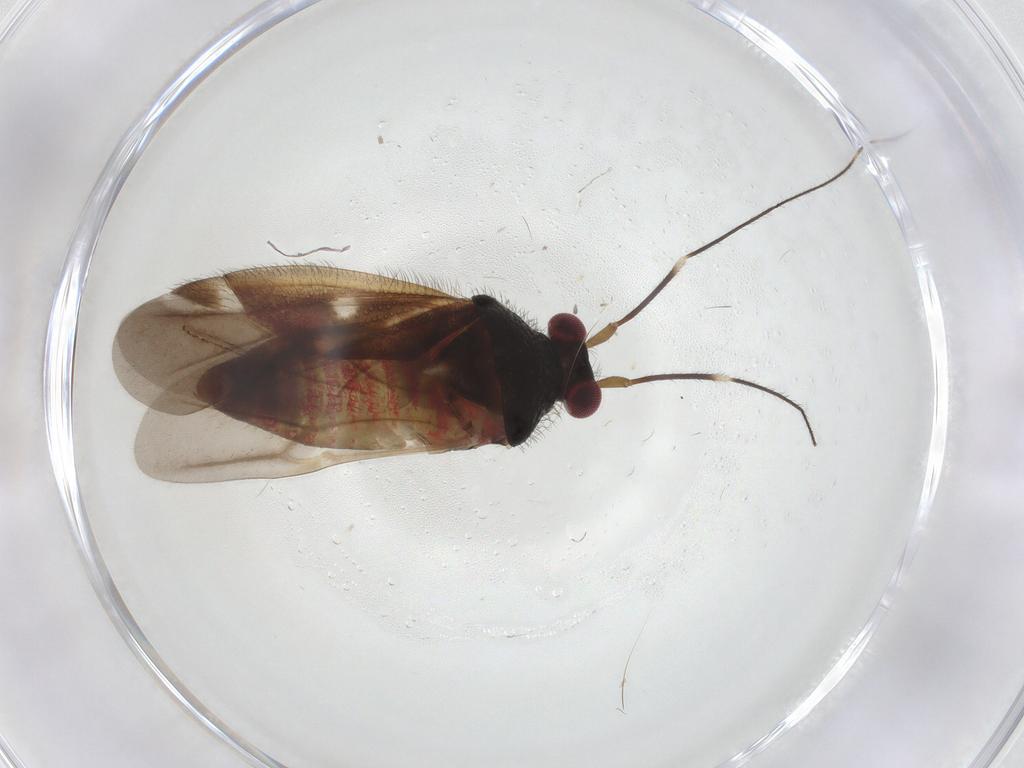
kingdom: Animalia
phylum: Arthropoda
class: Insecta
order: Hemiptera
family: Miridae
